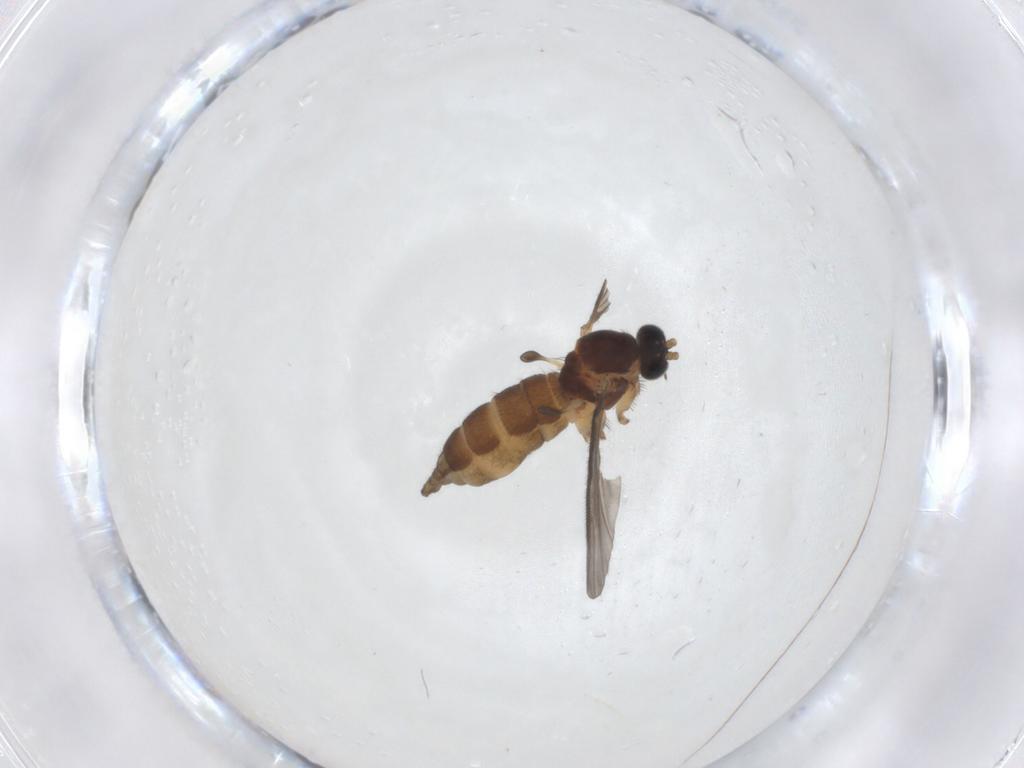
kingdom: Animalia
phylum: Arthropoda
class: Insecta
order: Diptera
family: Sciaridae
